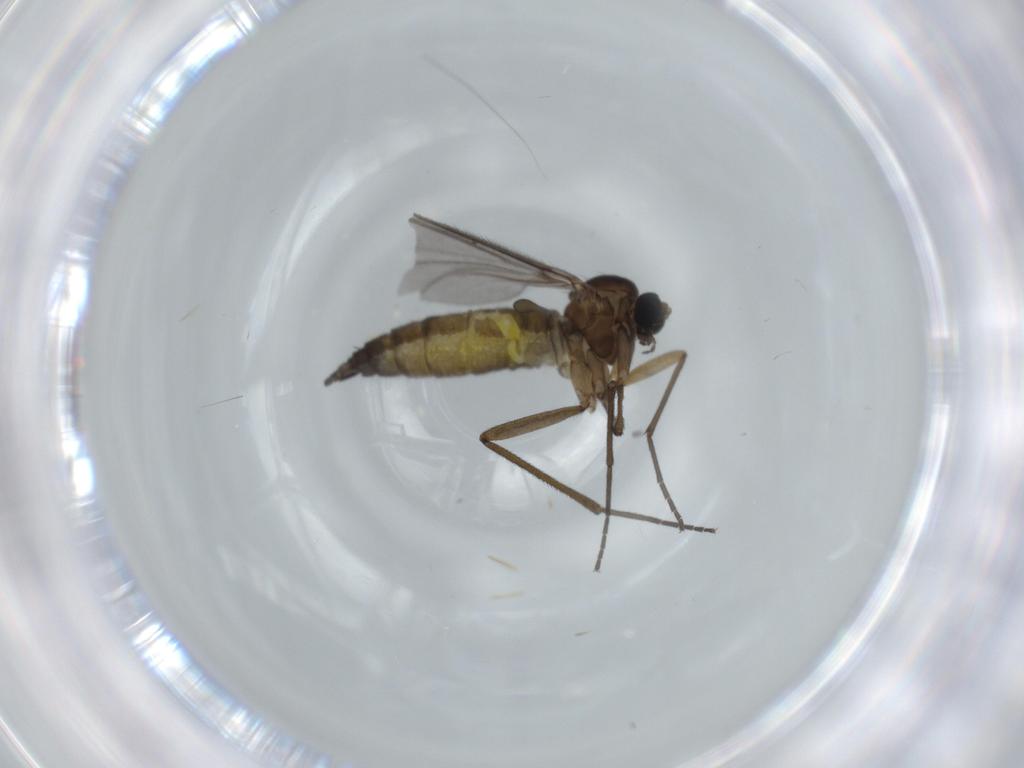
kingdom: Animalia
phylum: Arthropoda
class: Insecta
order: Diptera
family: Sciaridae
